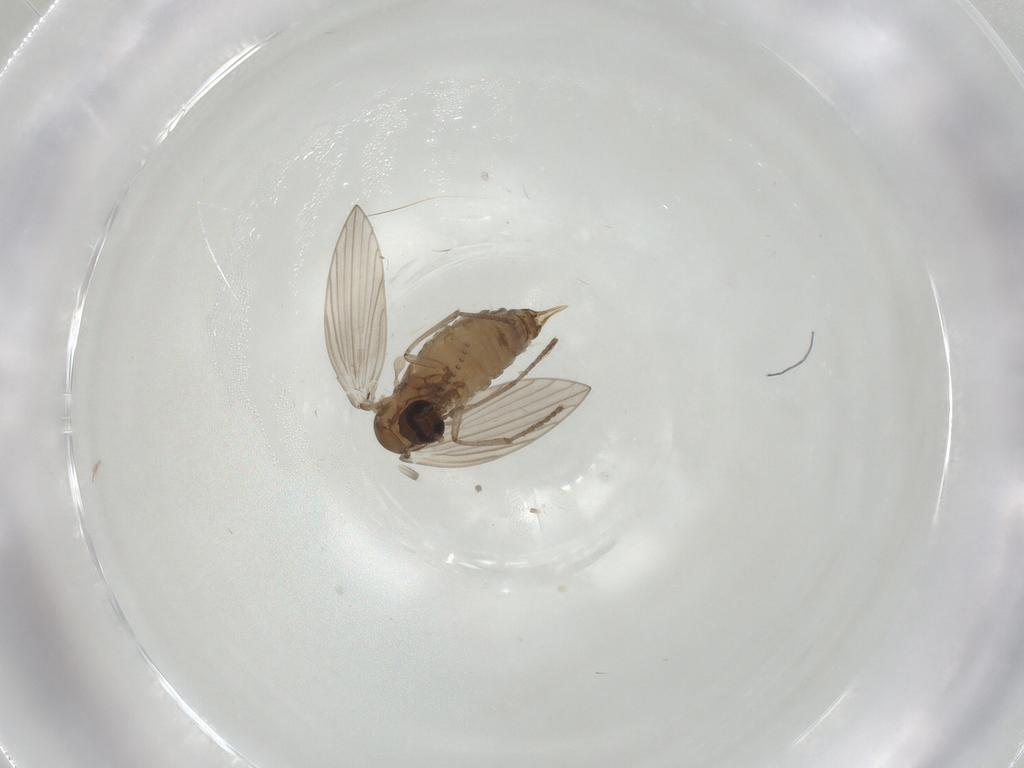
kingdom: Animalia
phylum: Arthropoda
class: Insecta
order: Diptera
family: Psychodidae
